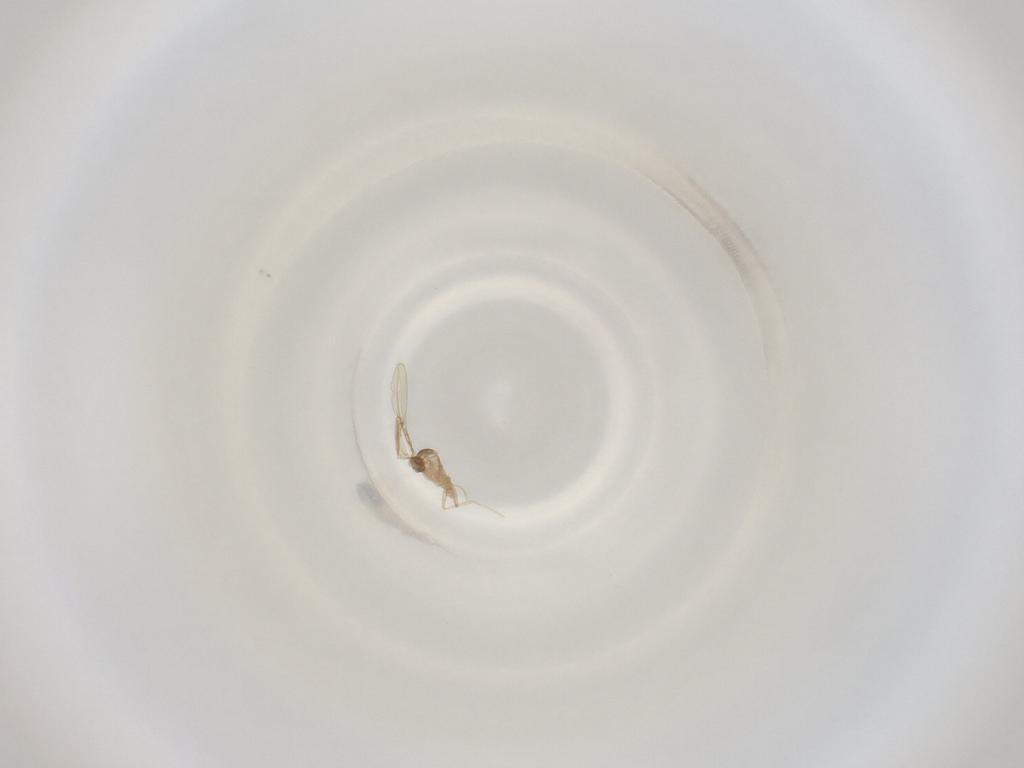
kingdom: Animalia
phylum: Arthropoda
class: Insecta
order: Diptera
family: Cecidomyiidae
